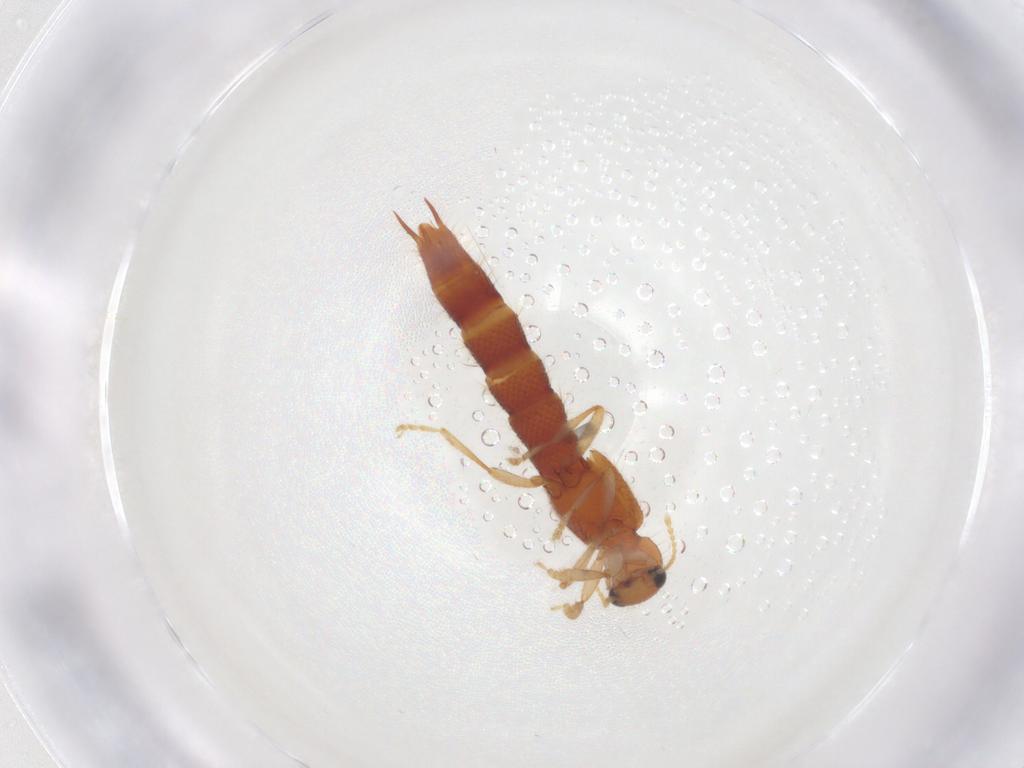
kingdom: Animalia
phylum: Arthropoda
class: Insecta
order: Coleoptera
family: Staphylinidae
